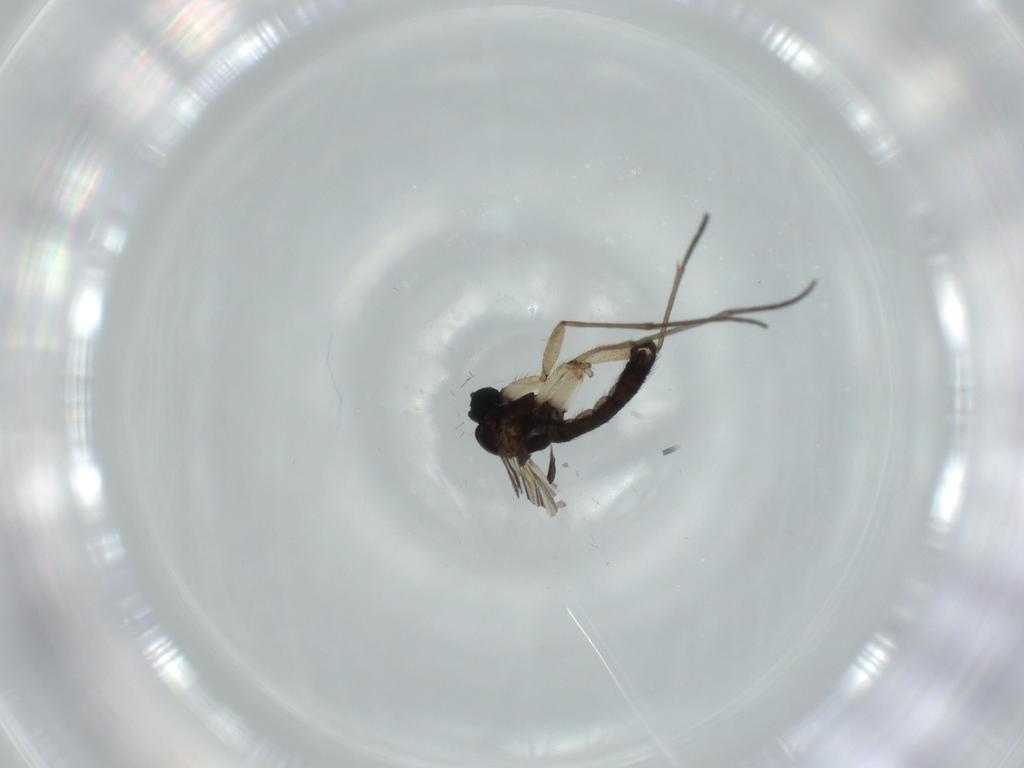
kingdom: Animalia
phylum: Arthropoda
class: Insecta
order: Diptera
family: Sciaridae
